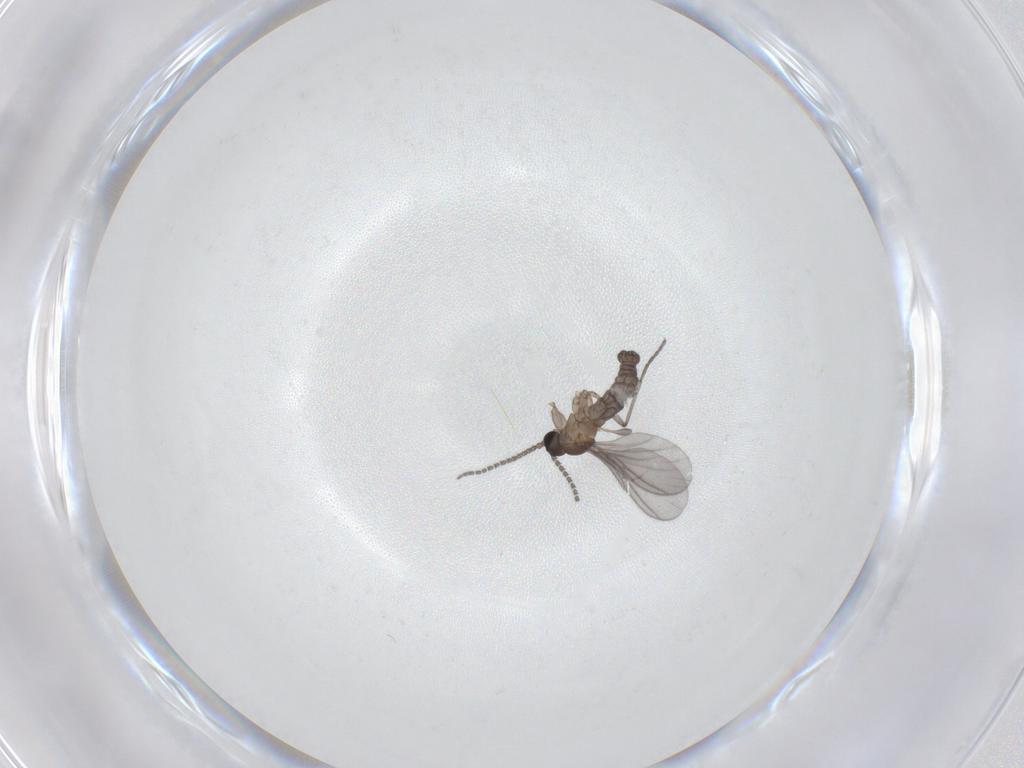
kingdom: Animalia
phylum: Arthropoda
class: Insecta
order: Diptera
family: Sciaridae
